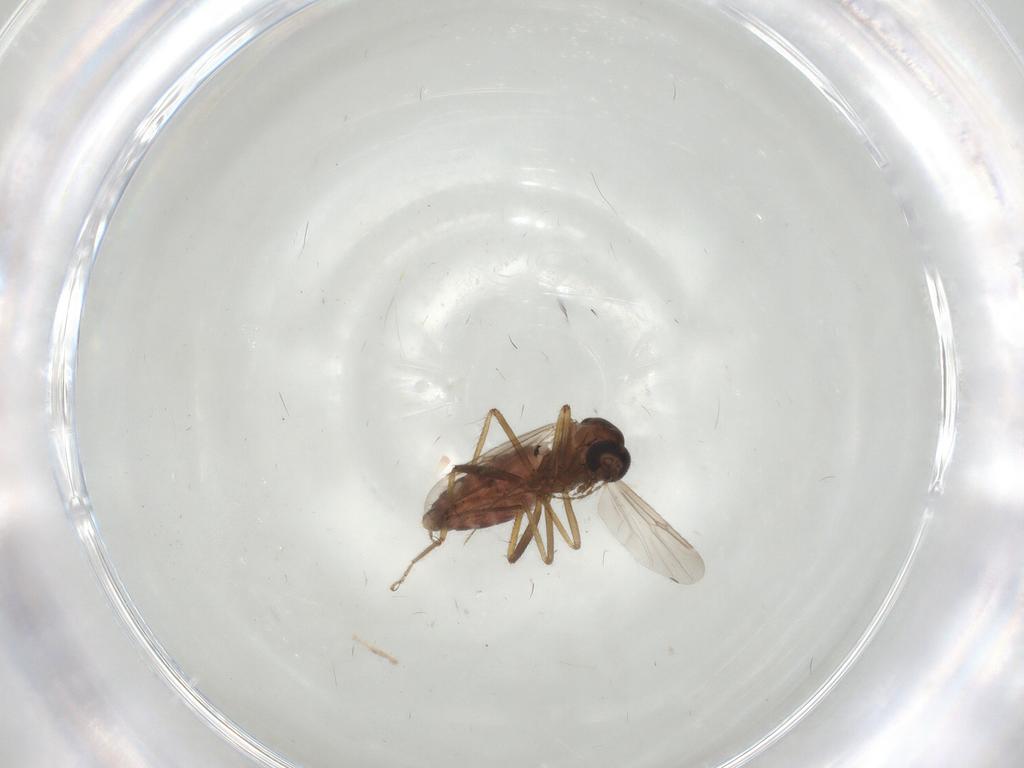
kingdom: Animalia
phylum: Arthropoda
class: Insecta
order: Diptera
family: Ceratopogonidae
